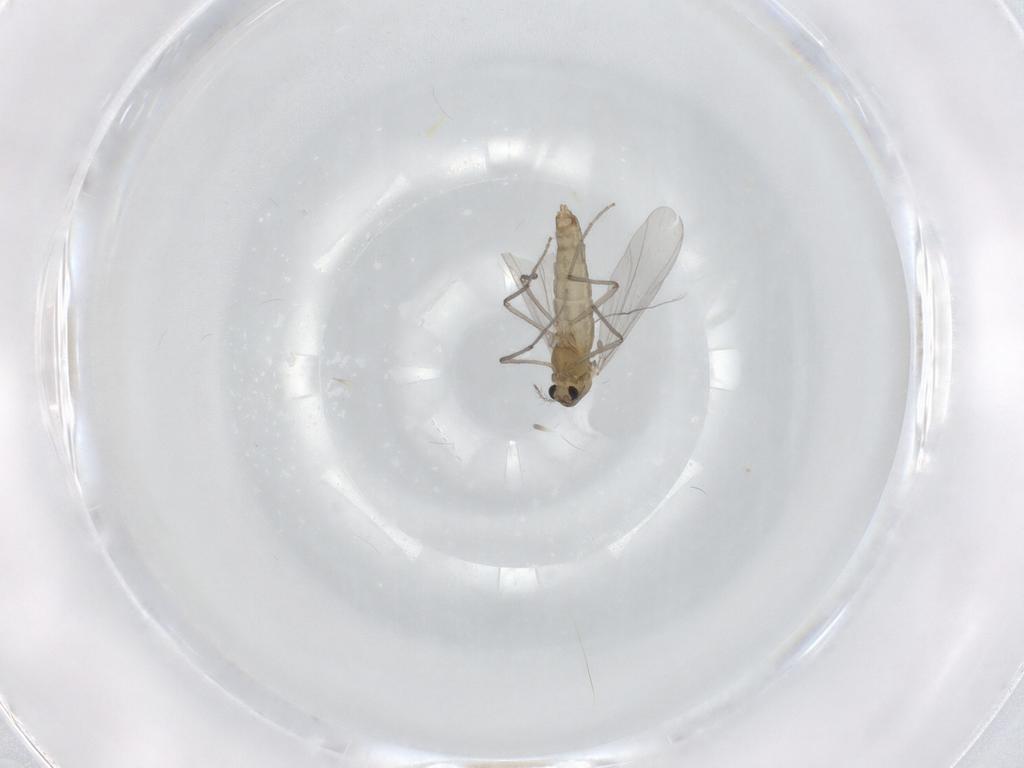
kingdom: Animalia
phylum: Arthropoda
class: Insecta
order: Diptera
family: Chironomidae
